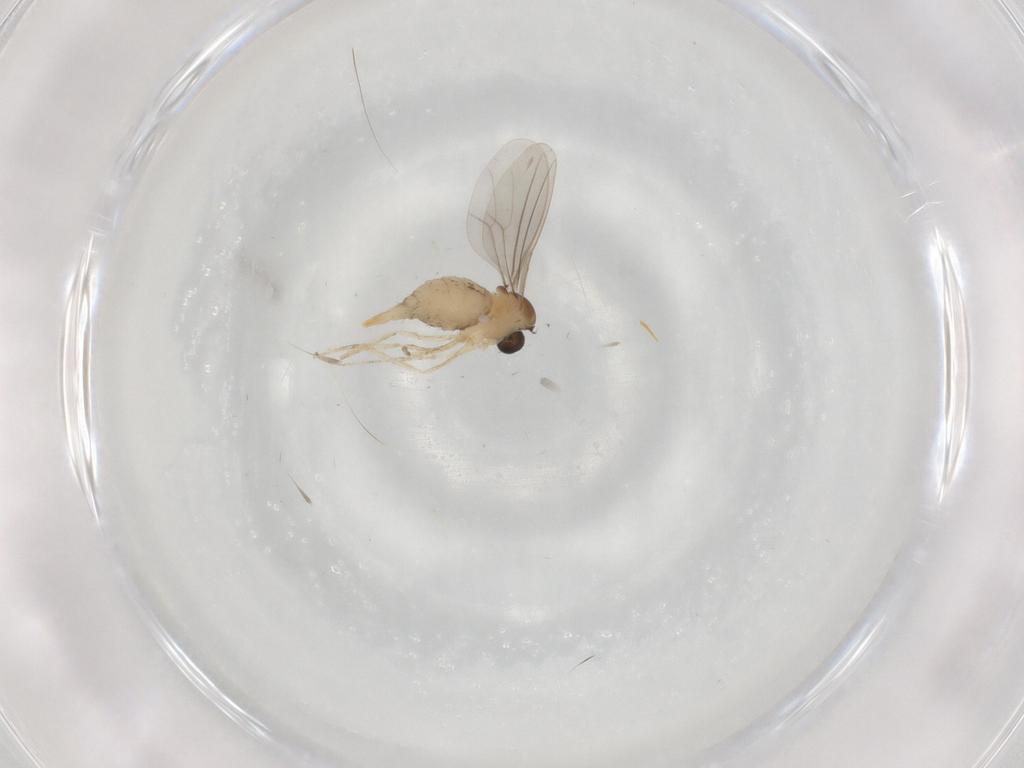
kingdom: Animalia
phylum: Arthropoda
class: Insecta
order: Diptera
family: Cecidomyiidae
